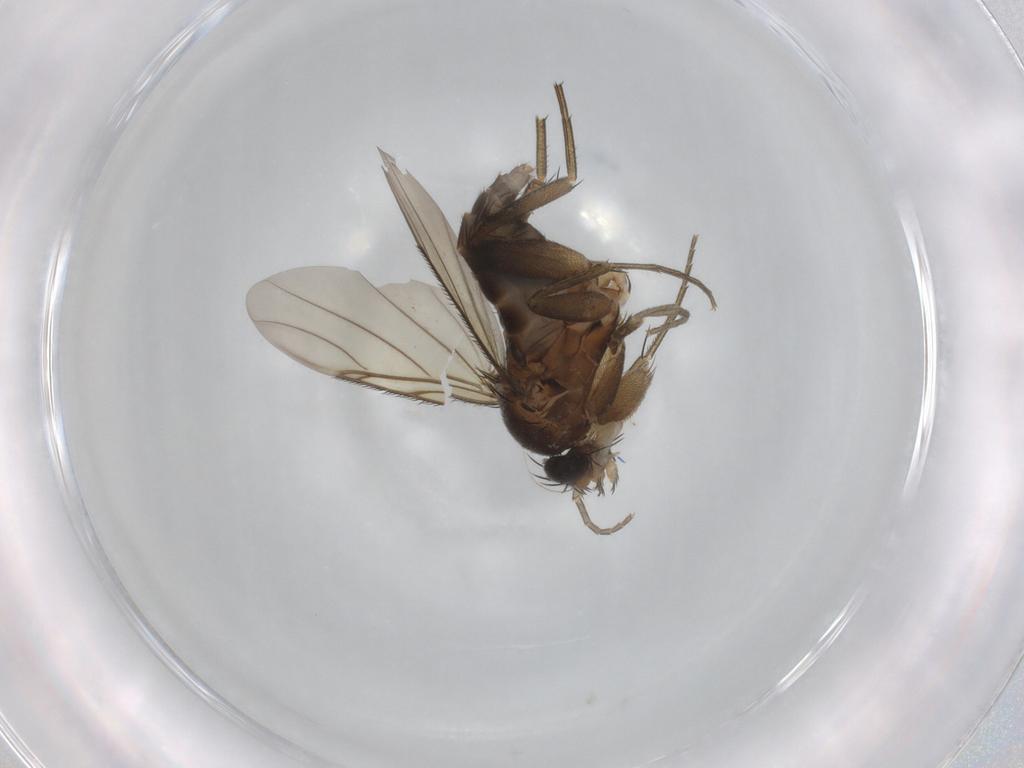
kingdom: Animalia
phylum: Arthropoda
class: Insecta
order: Diptera
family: Phoridae
